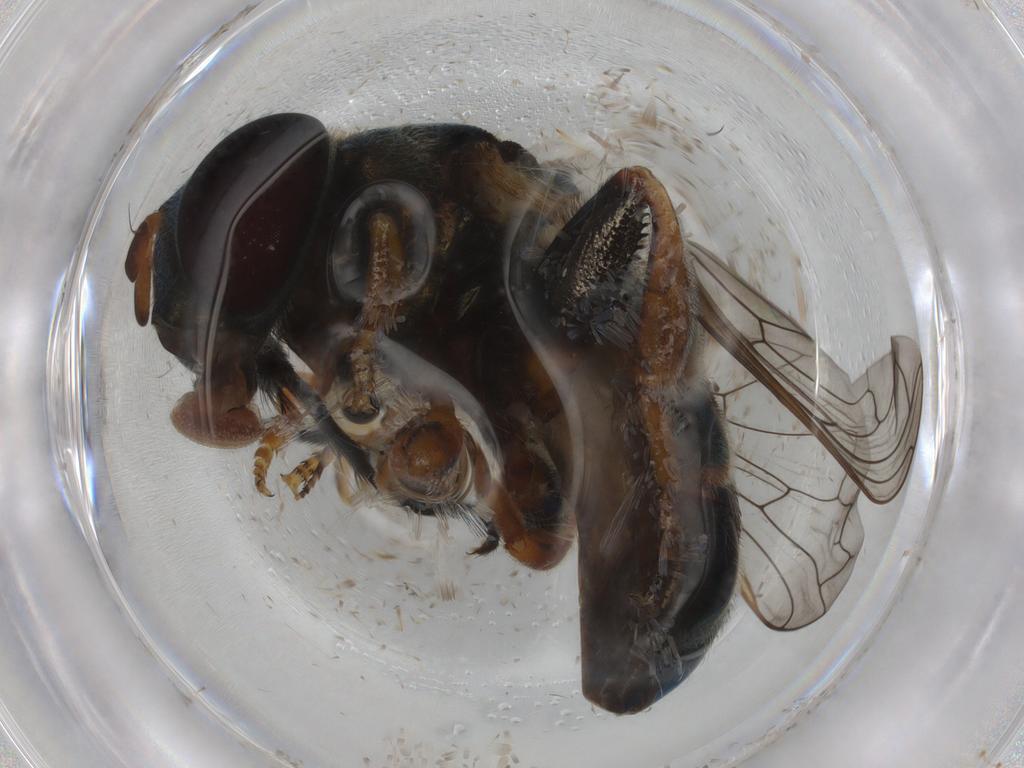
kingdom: Animalia
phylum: Arthropoda
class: Insecta
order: Diptera
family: Syrphidae
